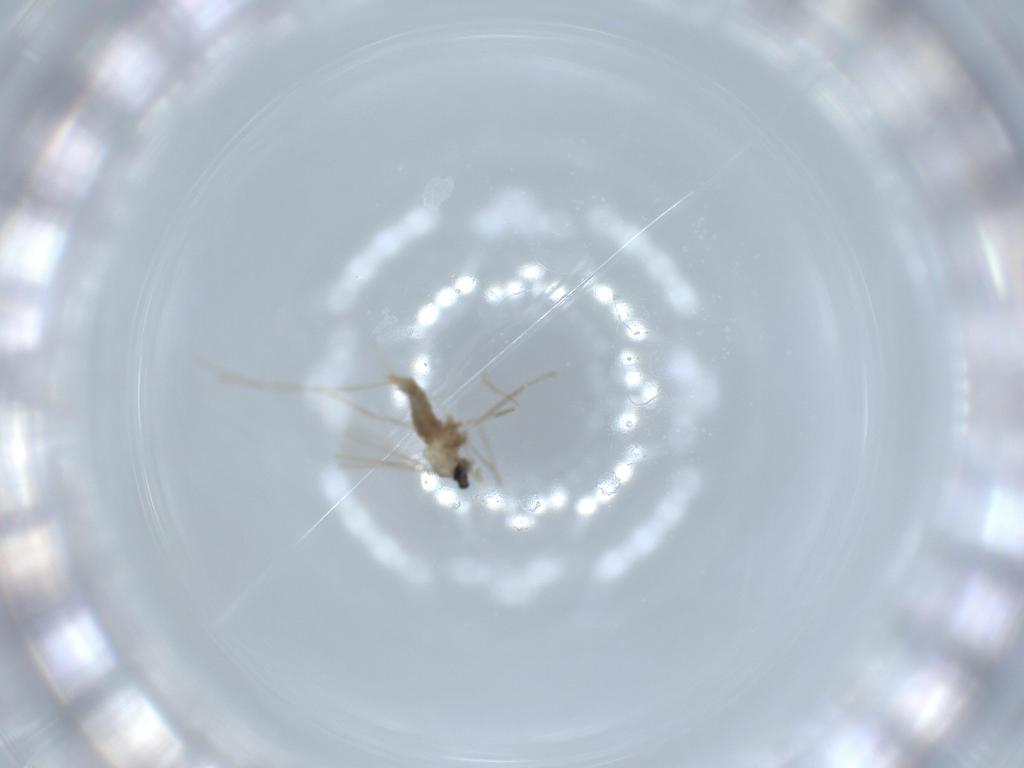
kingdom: Animalia
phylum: Arthropoda
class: Insecta
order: Diptera
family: Cecidomyiidae
